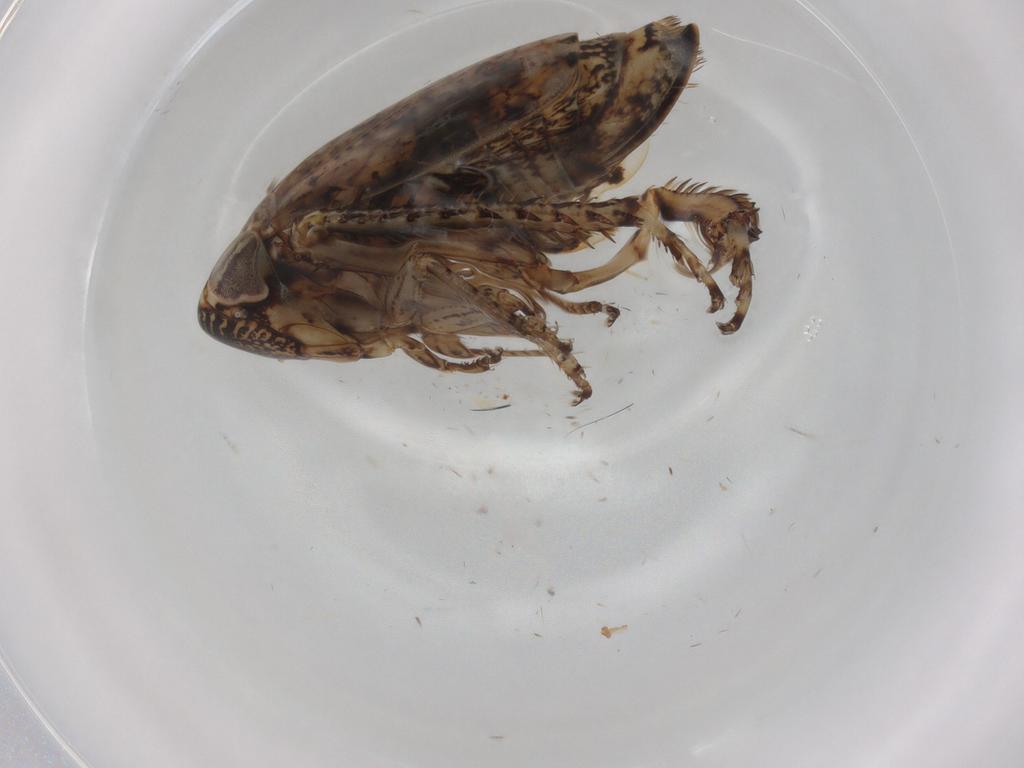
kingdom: Animalia
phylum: Arthropoda
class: Insecta
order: Hemiptera
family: Cicadellidae
